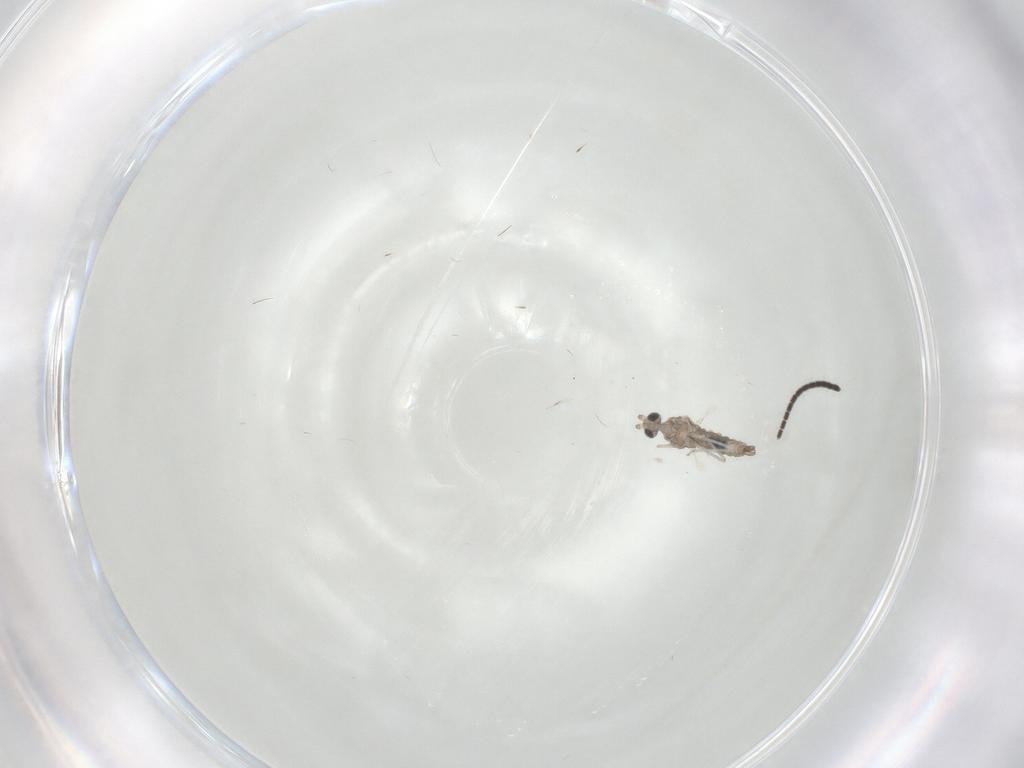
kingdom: Animalia
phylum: Arthropoda
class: Insecta
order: Diptera
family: Cecidomyiidae
